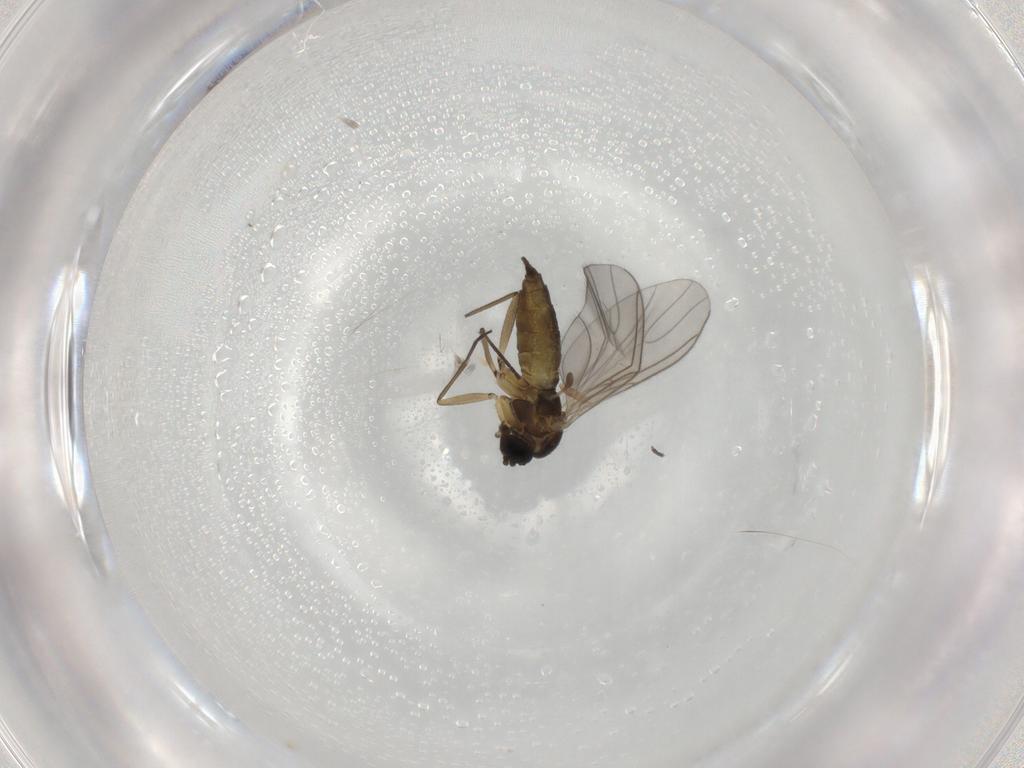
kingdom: Animalia
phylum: Arthropoda
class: Insecta
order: Diptera
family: Sciaridae
